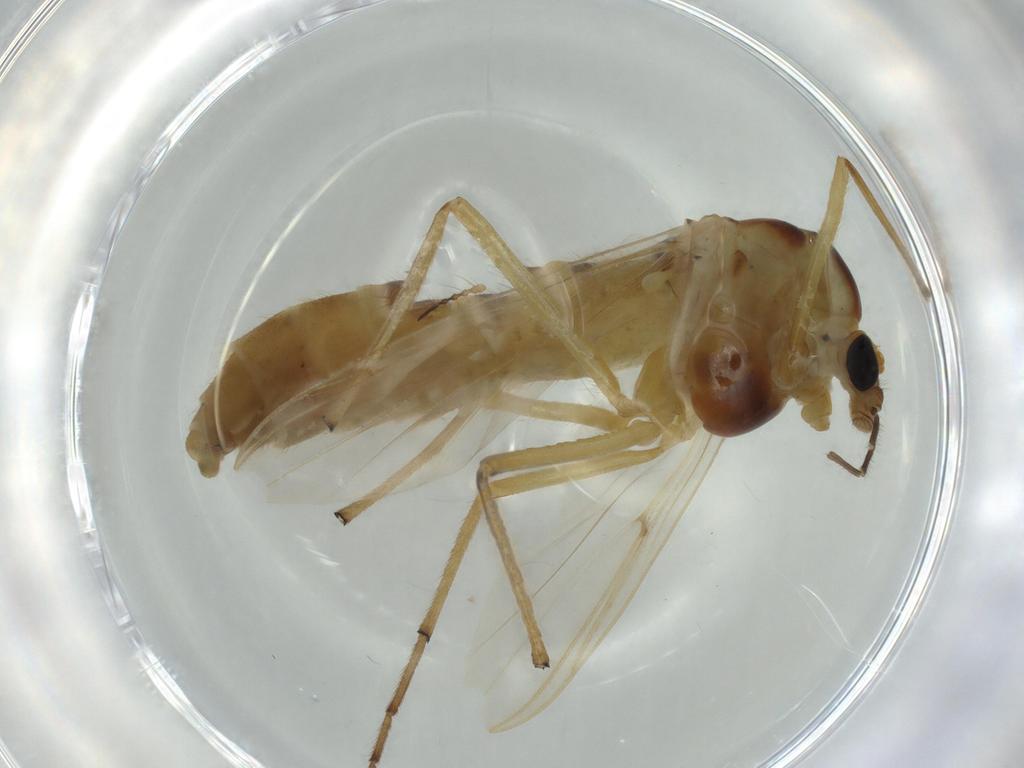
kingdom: Animalia
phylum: Arthropoda
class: Insecta
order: Diptera
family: Chironomidae
